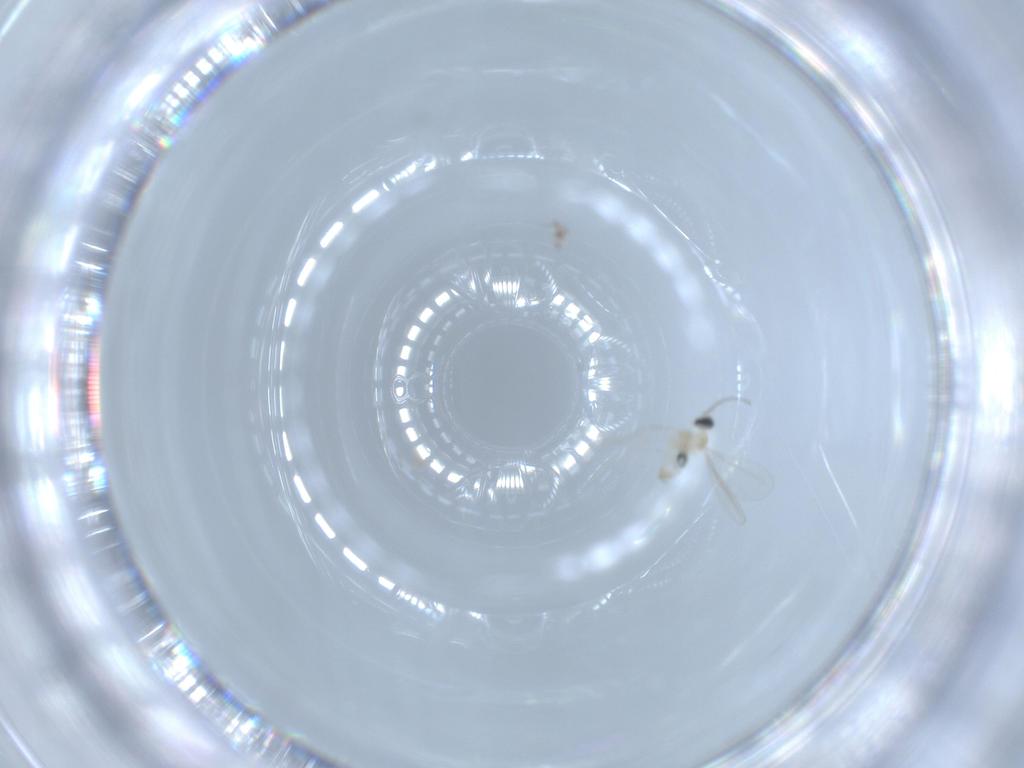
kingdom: Animalia
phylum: Arthropoda
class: Insecta
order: Diptera
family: Cecidomyiidae
